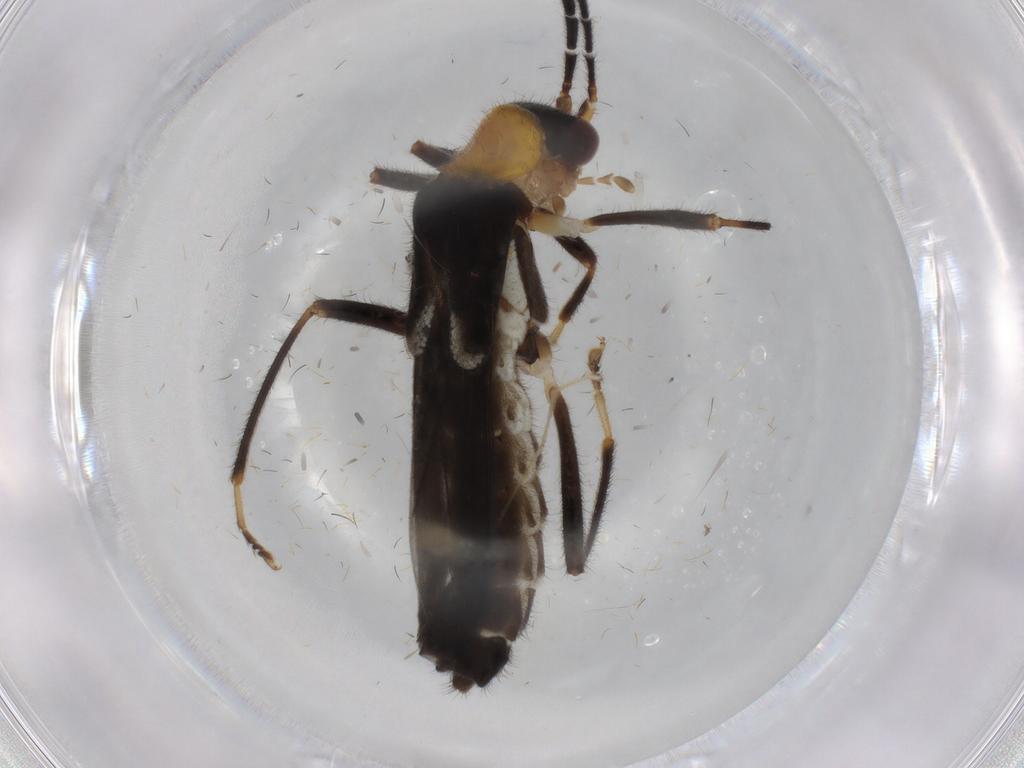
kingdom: Animalia
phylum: Arthropoda
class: Insecta
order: Coleoptera
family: Cantharidae
